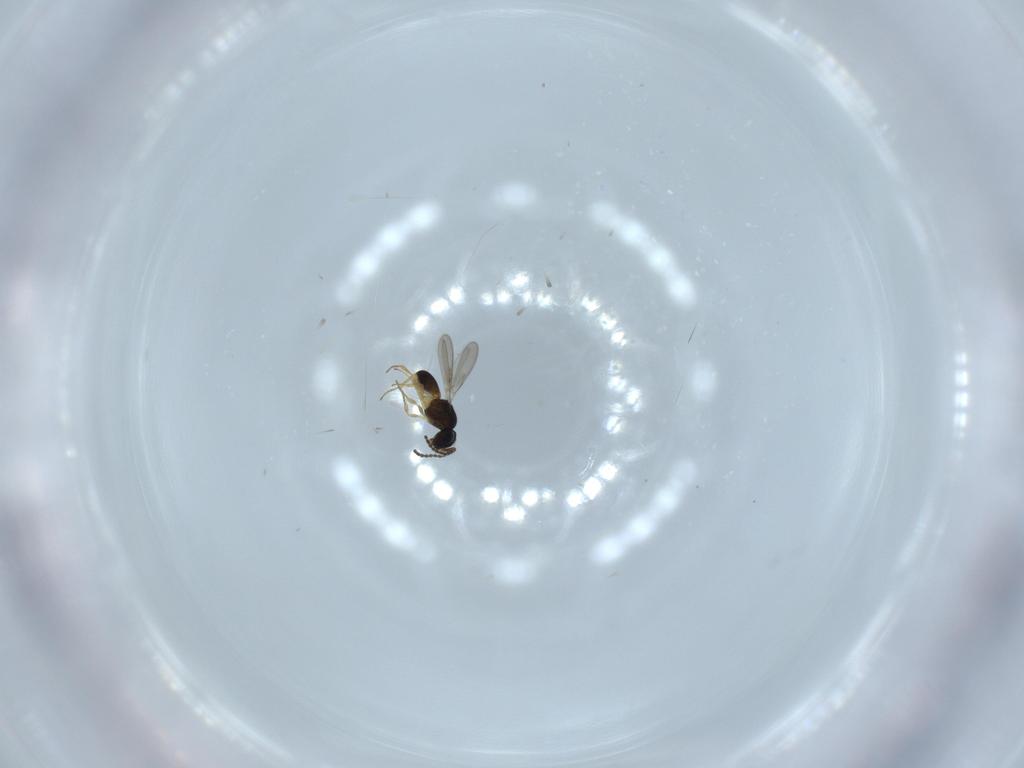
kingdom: Animalia
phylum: Arthropoda
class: Insecta
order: Hymenoptera
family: Scelionidae
